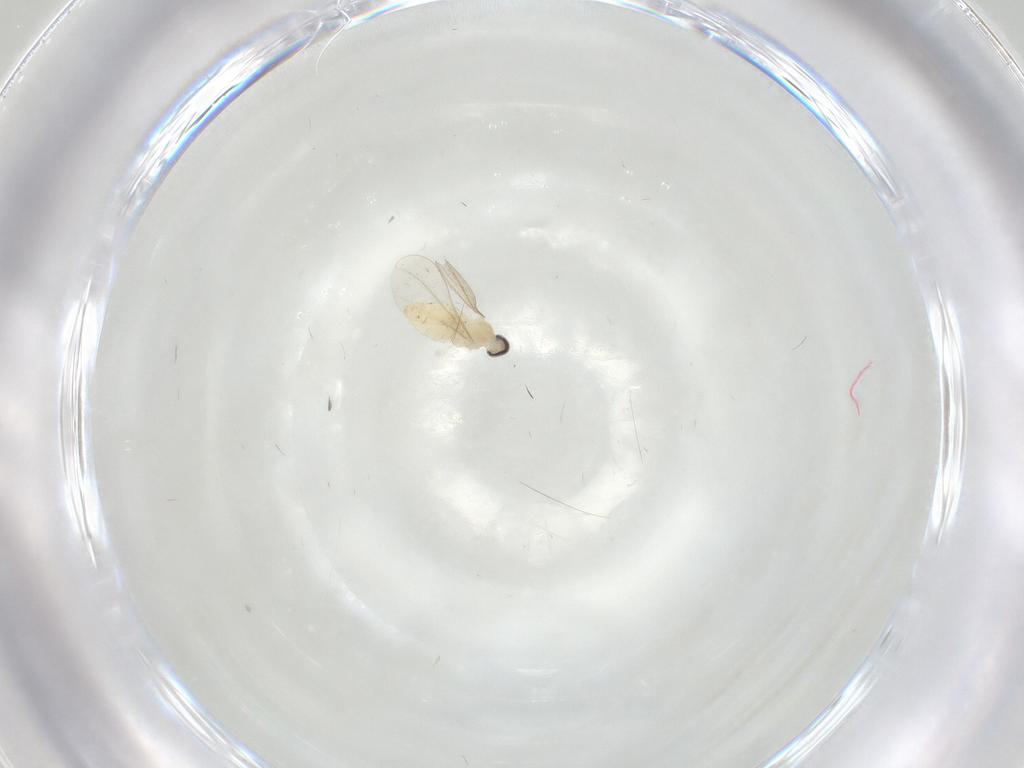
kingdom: Animalia
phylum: Arthropoda
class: Insecta
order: Diptera
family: Cecidomyiidae
